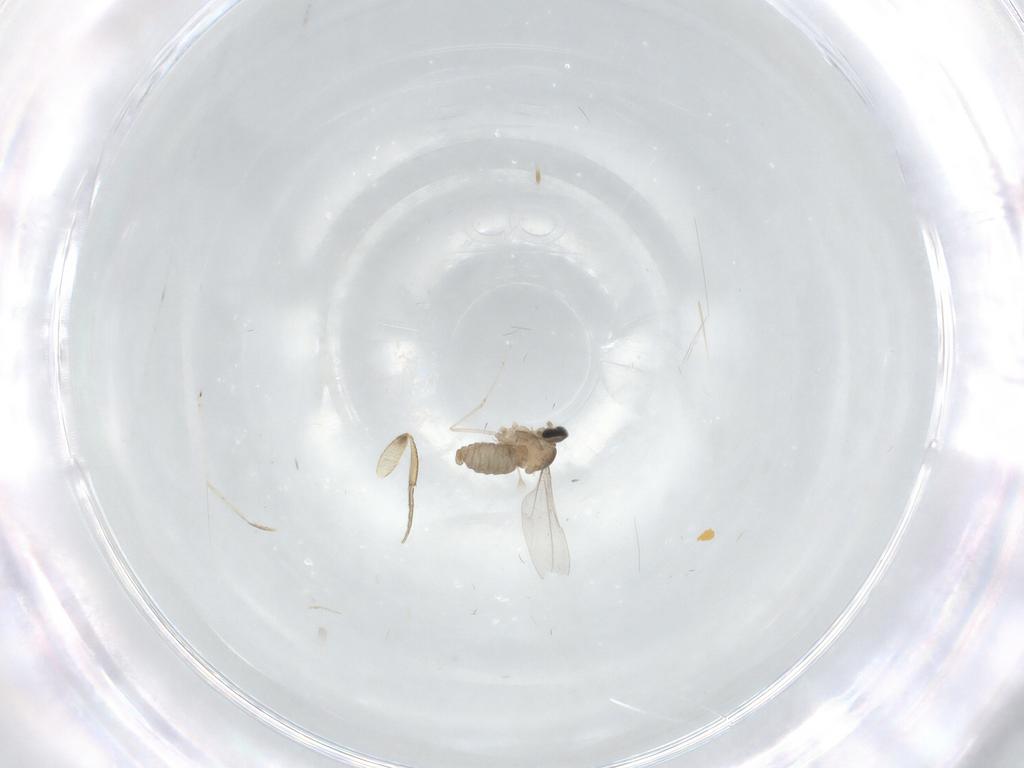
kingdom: Animalia
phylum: Arthropoda
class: Insecta
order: Diptera
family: Cecidomyiidae
